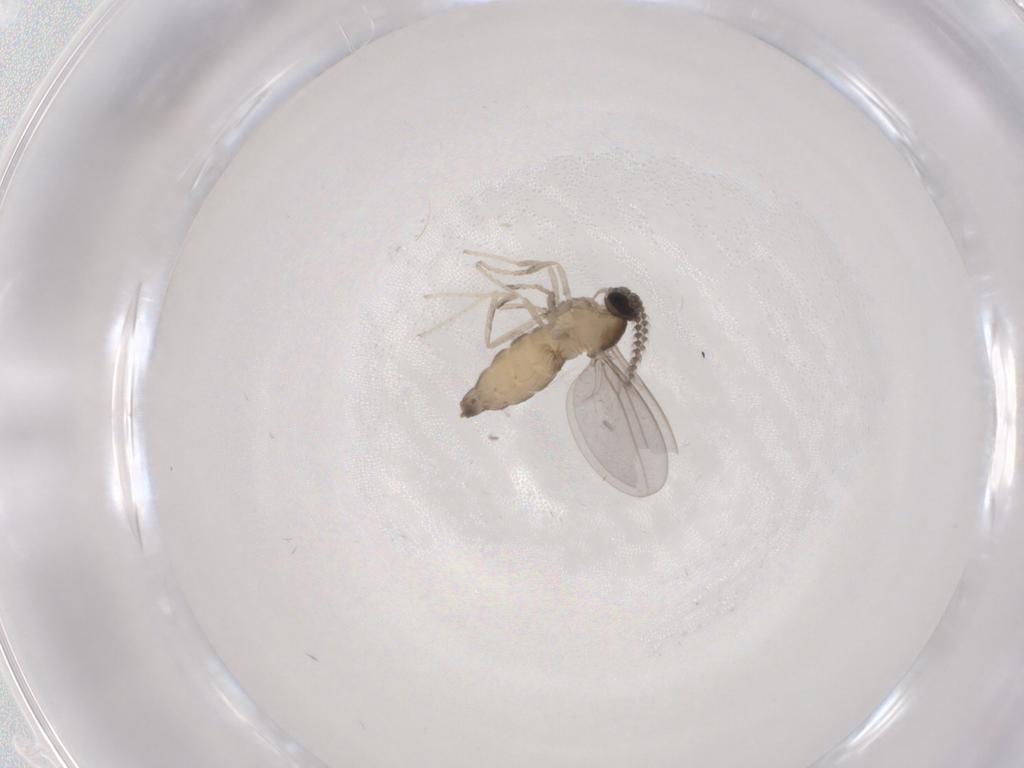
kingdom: Animalia
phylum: Arthropoda
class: Insecta
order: Diptera
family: Cecidomyiidae
